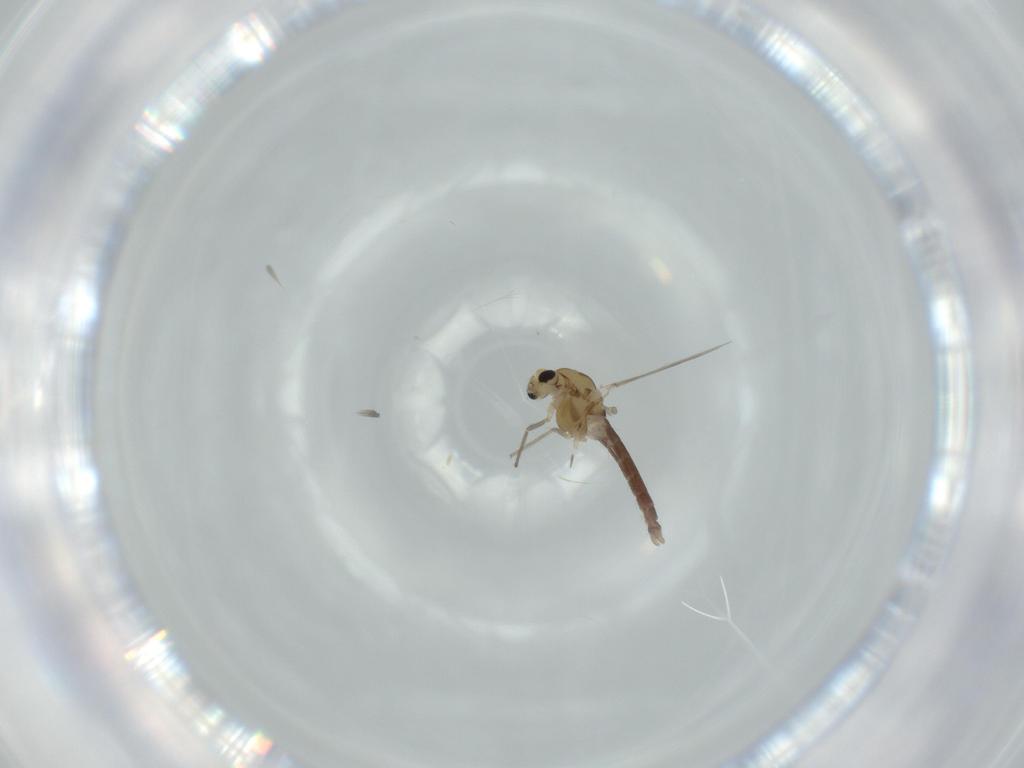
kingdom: Animalia
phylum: Arthropoda
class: Insecta
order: Diptera
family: Chironomidae
